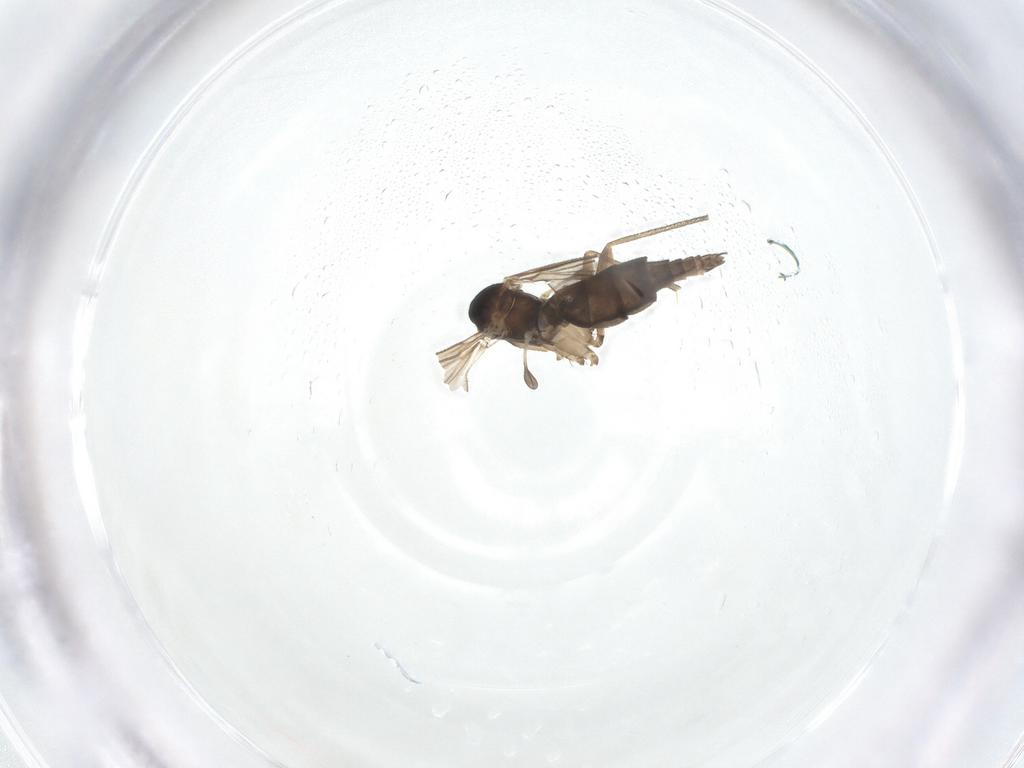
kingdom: Animalia
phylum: Arthropoda
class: Insecta
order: Diptera
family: Sciaridae
